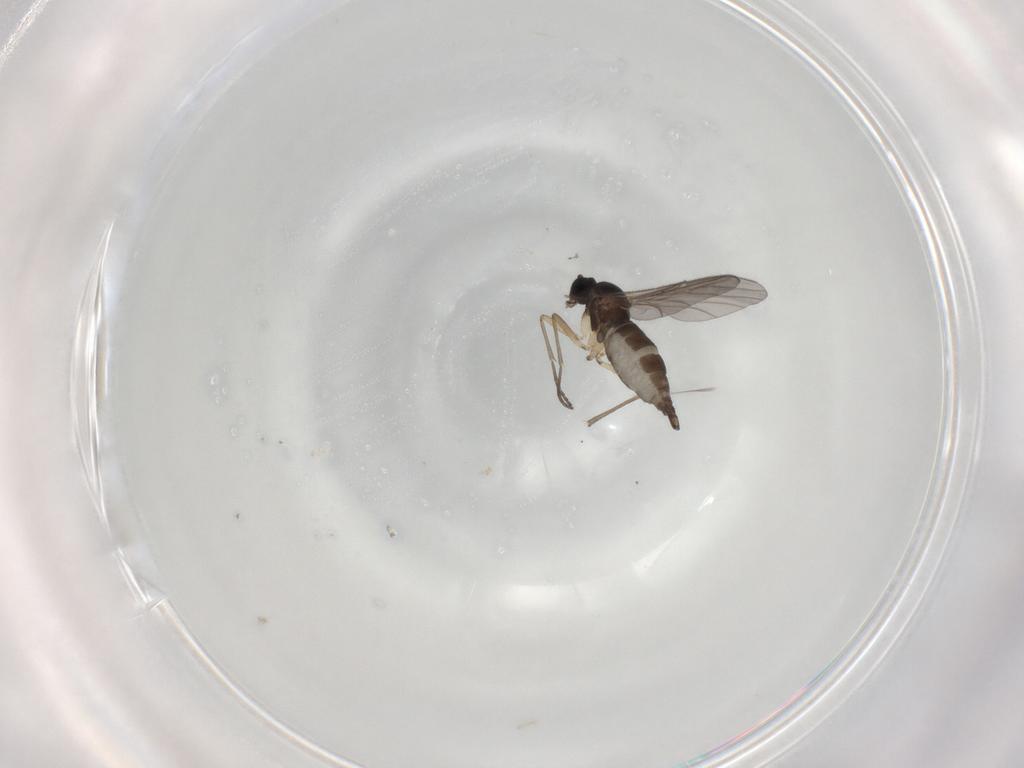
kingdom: Animalia
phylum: Arthropoda
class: Insecta
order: Diptera
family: Sciaridae
